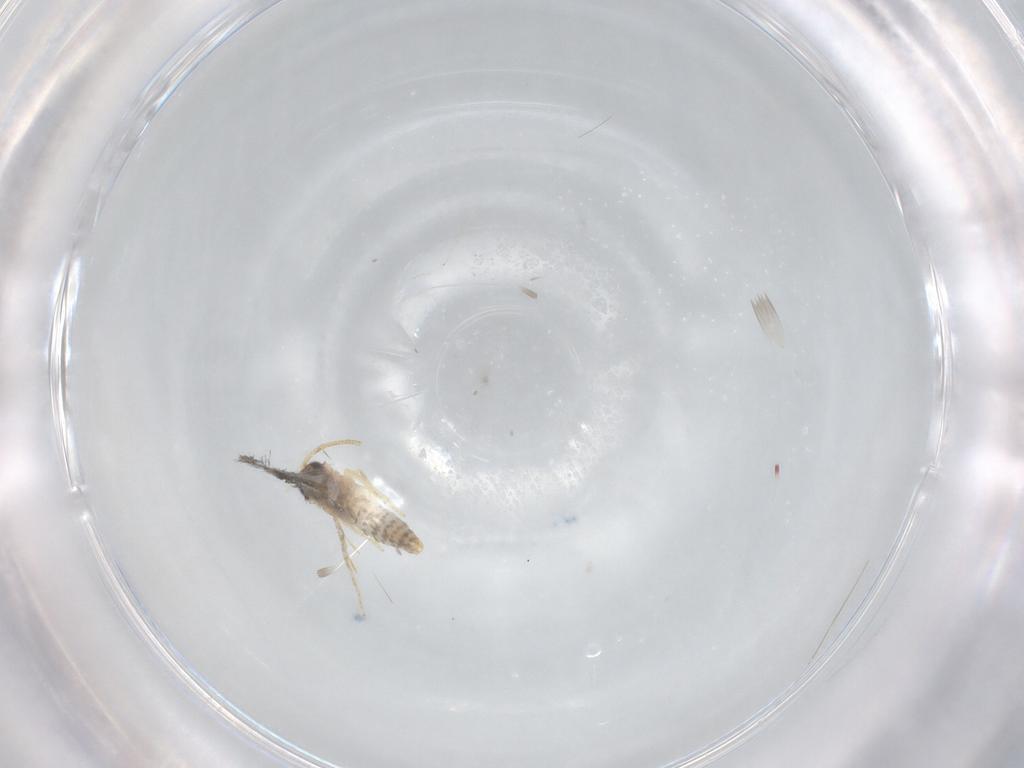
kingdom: Animalia
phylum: Arthropoda
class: Insecta
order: Lepidoptera
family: Nepticulidae
